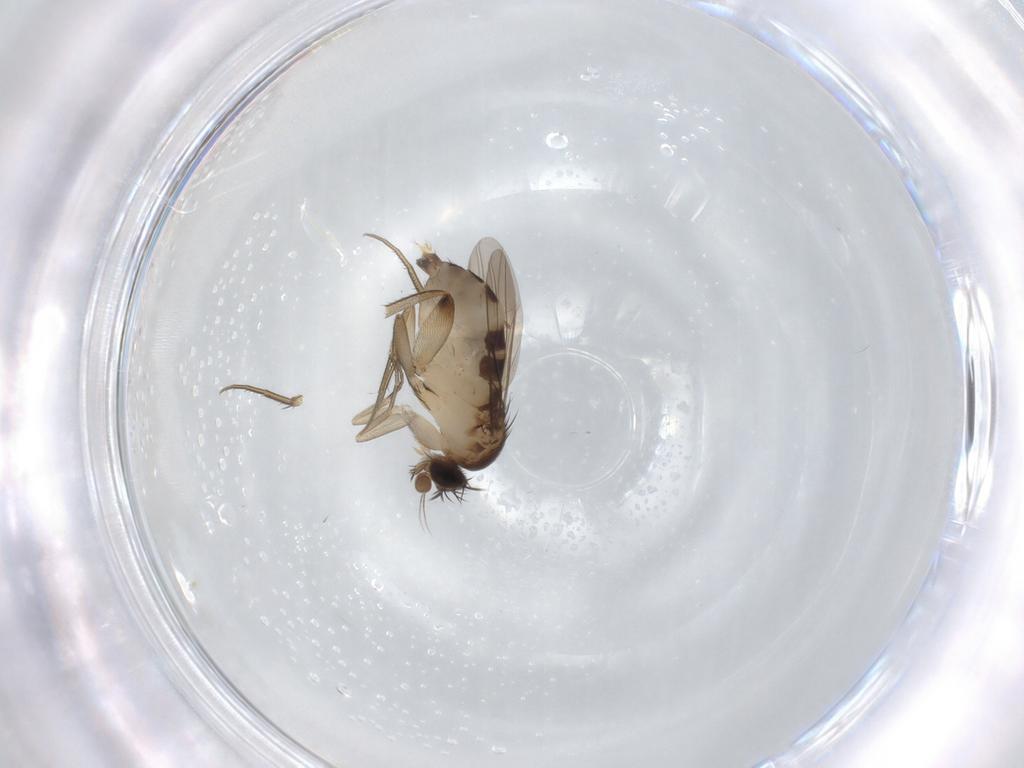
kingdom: Animalia
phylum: Arthropoda
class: Insecta
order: Diptera
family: Phoridae
